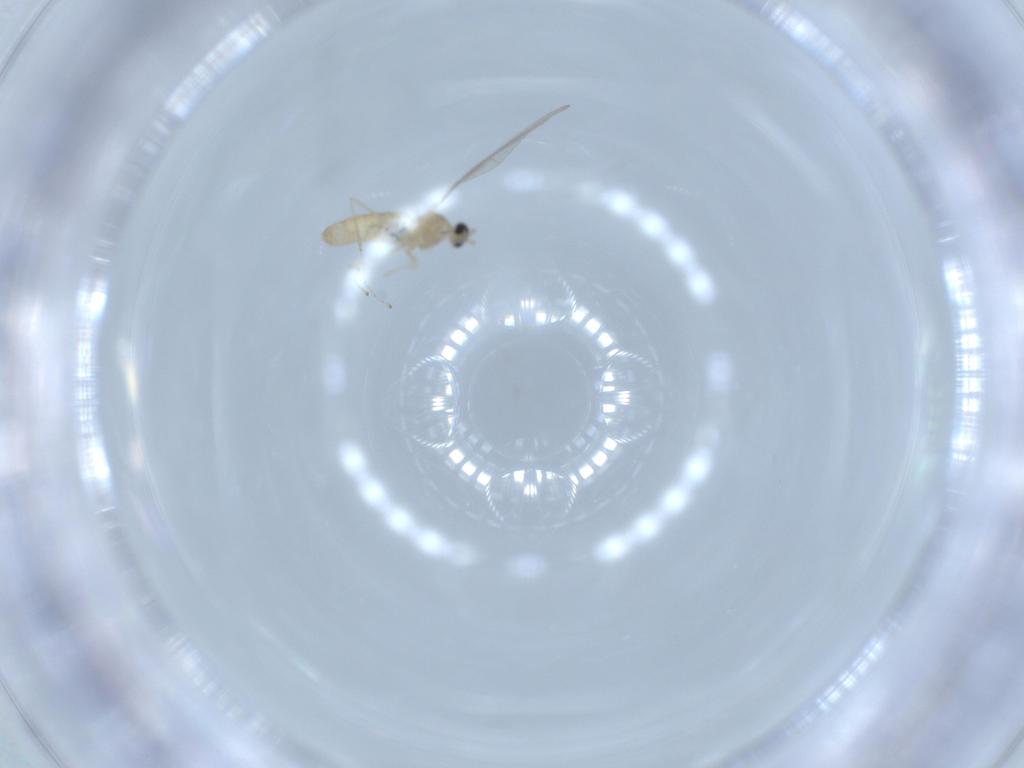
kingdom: Animalia
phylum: Arthropoda
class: Insecta
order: Diptera
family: Cecidomyiidae
